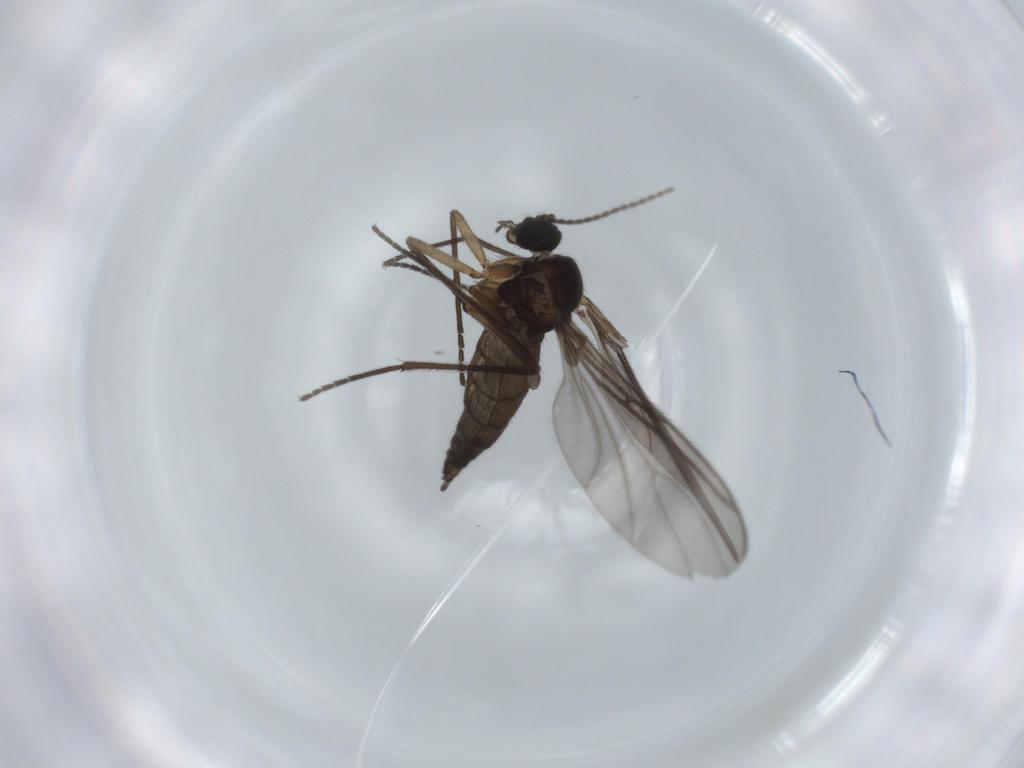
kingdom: Animalia
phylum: Arthropoda
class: Insecta
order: Diptera
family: Sciaridae
